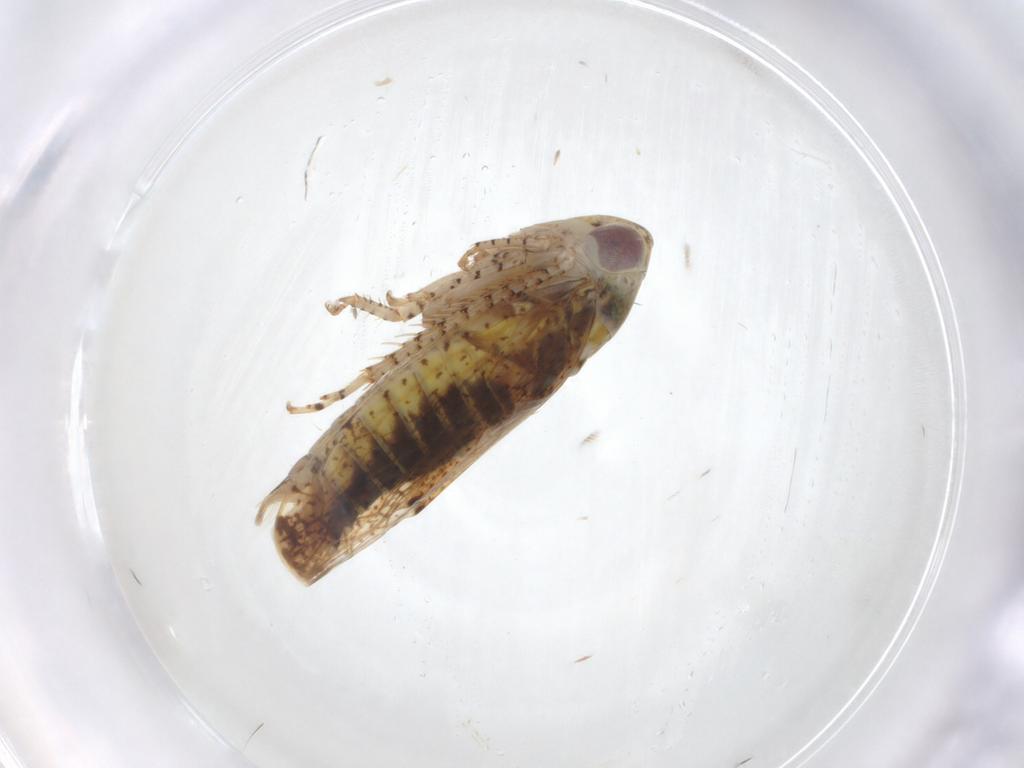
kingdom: Animalia
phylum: Arthropoda
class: Insecta
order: Hemiptera
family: Cicadellidae
